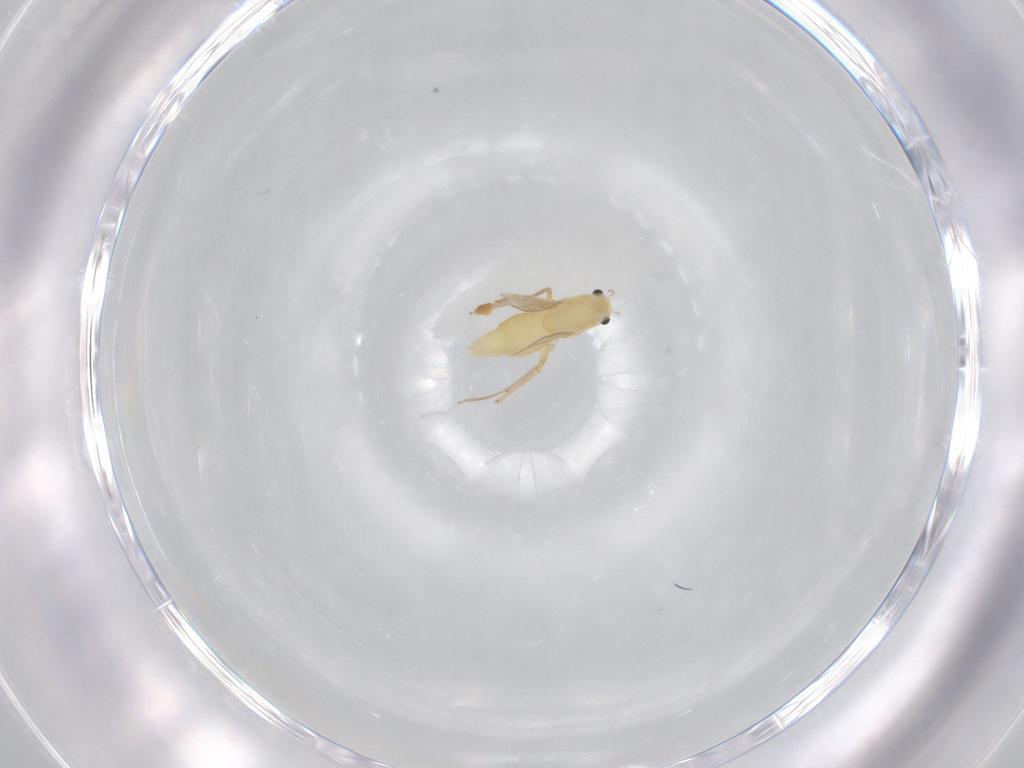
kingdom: Animalia
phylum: Arthropoda
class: Insecta
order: Diptera
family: Chironomidae
